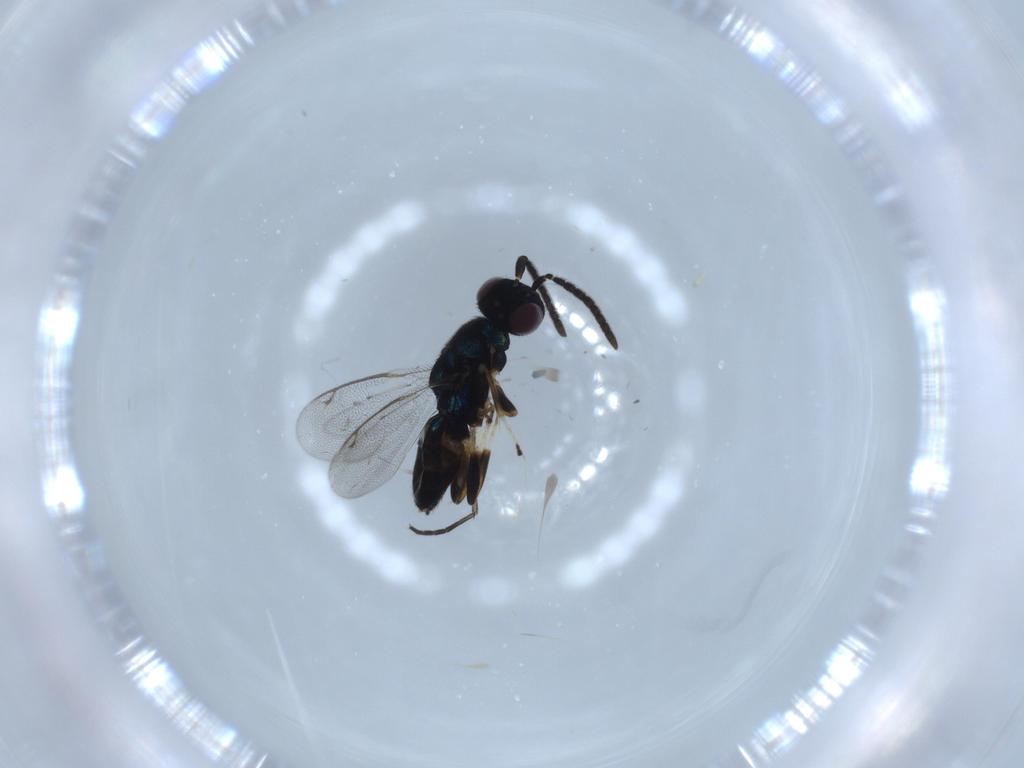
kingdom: Animalia
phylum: Arthropoda
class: Insecta
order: Hymenoptera
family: Eupelmidae
